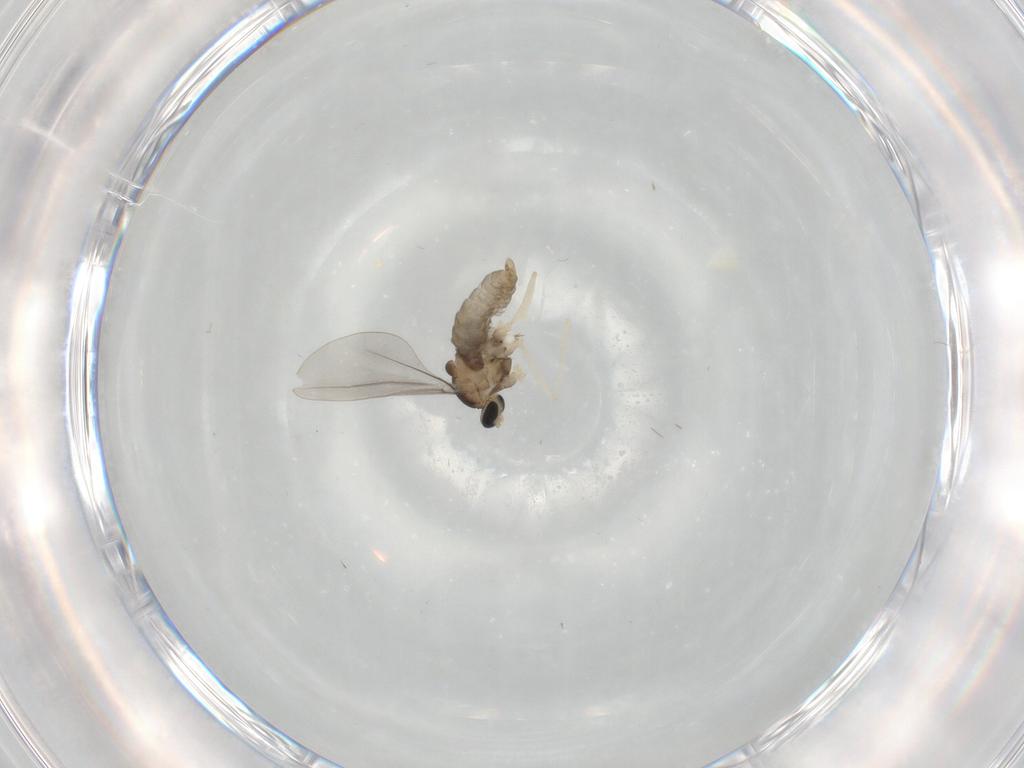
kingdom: Animalia
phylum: Arthropoda
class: Insecta
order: Diptera
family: Cecidomyiidae
